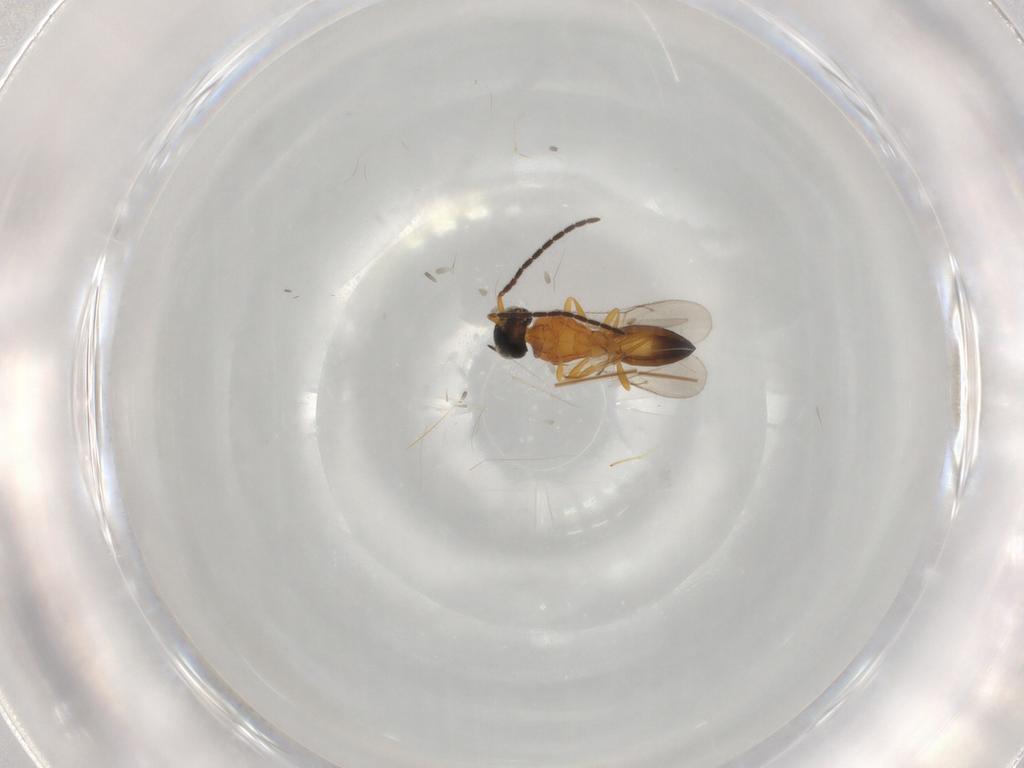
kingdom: Animalia
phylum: Arthropoda
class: Insecta
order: Hymenoptera
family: Scelionidae
